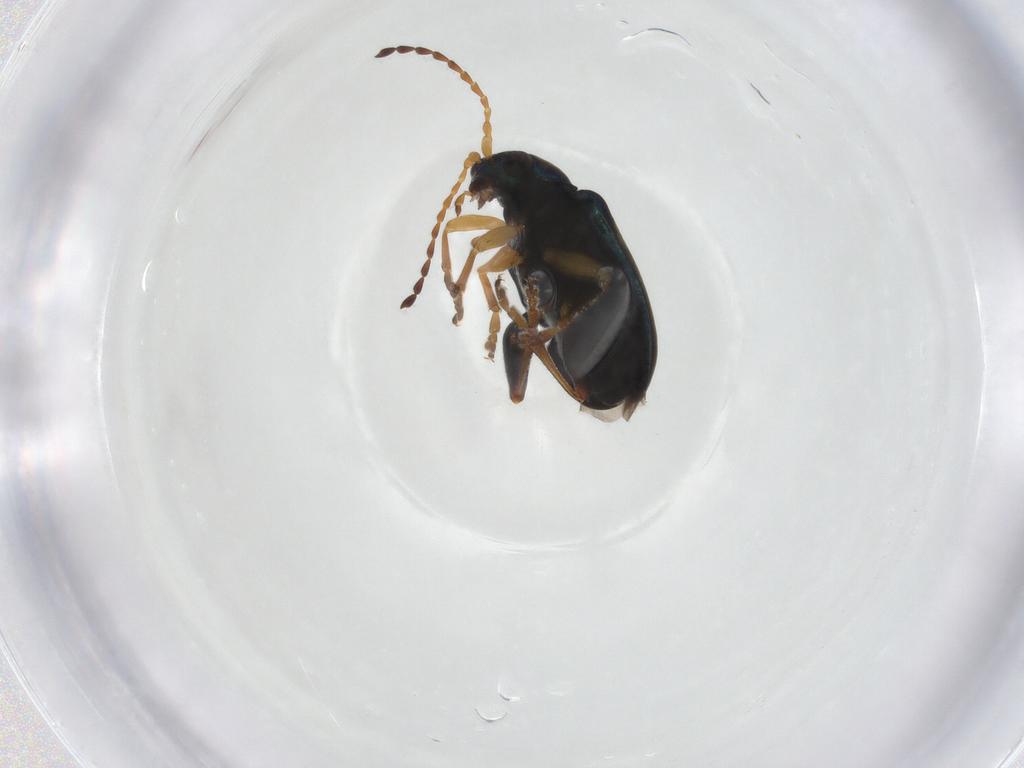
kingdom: Animalia
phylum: Arthropoda
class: Insecta
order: Coleoptera
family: Chrysomelidae
